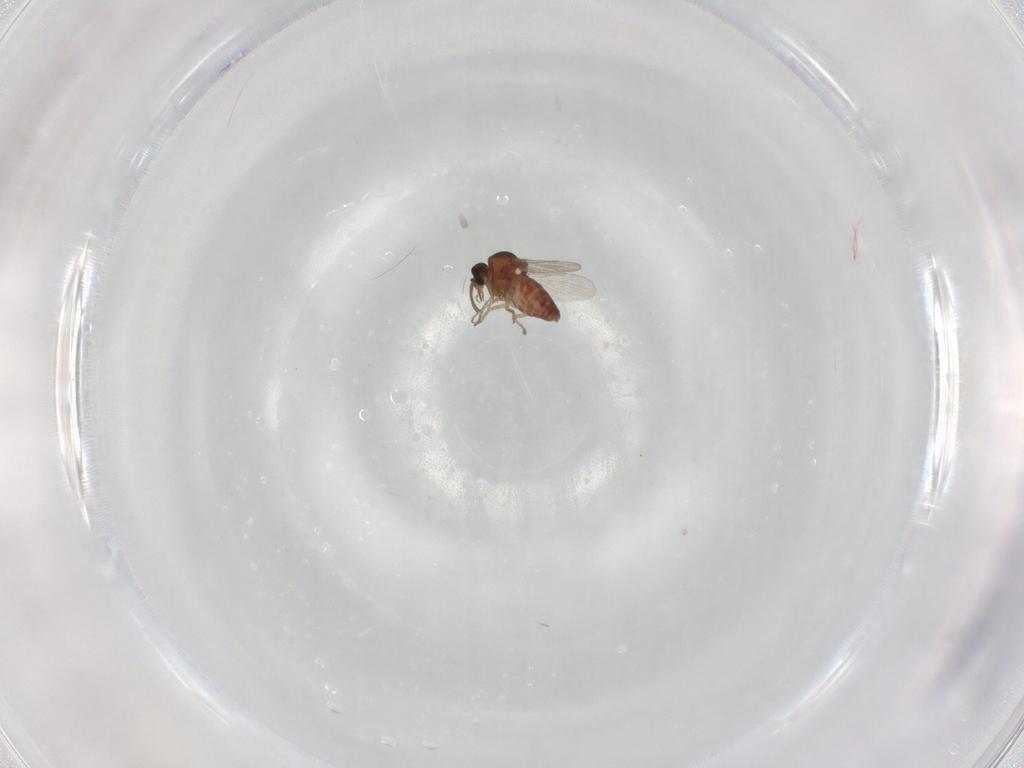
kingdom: Animalia
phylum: Arthropoda
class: Insecta
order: Diptera
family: Ceratopogonidae
